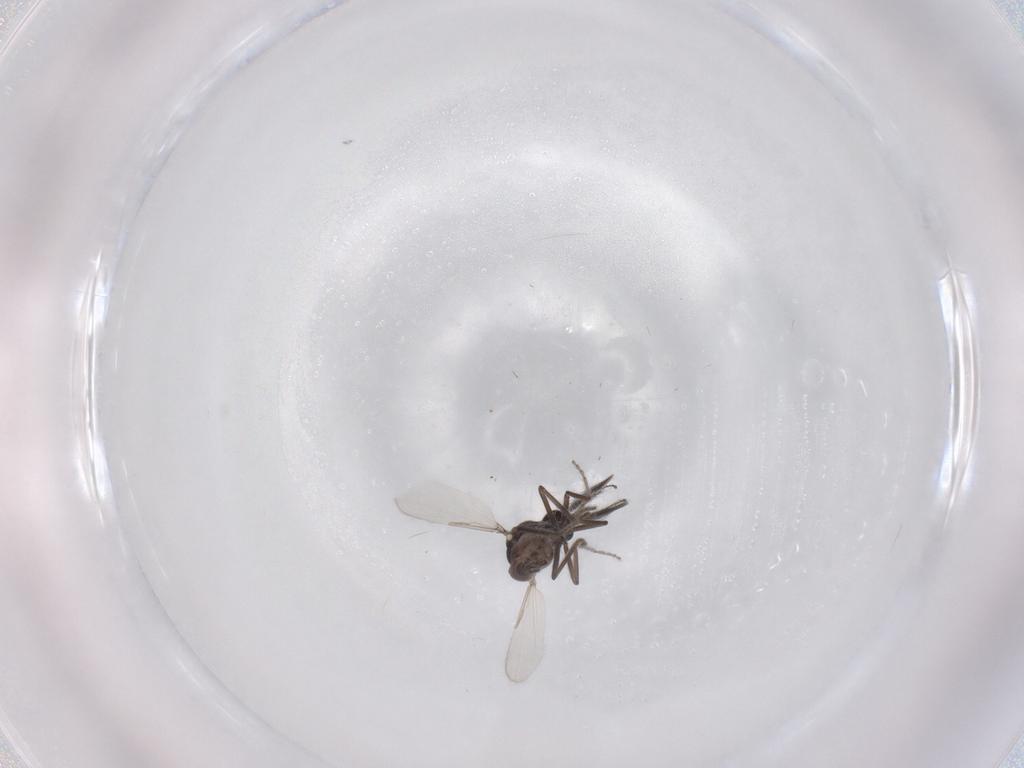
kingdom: Animalia
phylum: Arthropoda
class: Insecta
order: Diptera
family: Ceratopogonidae
